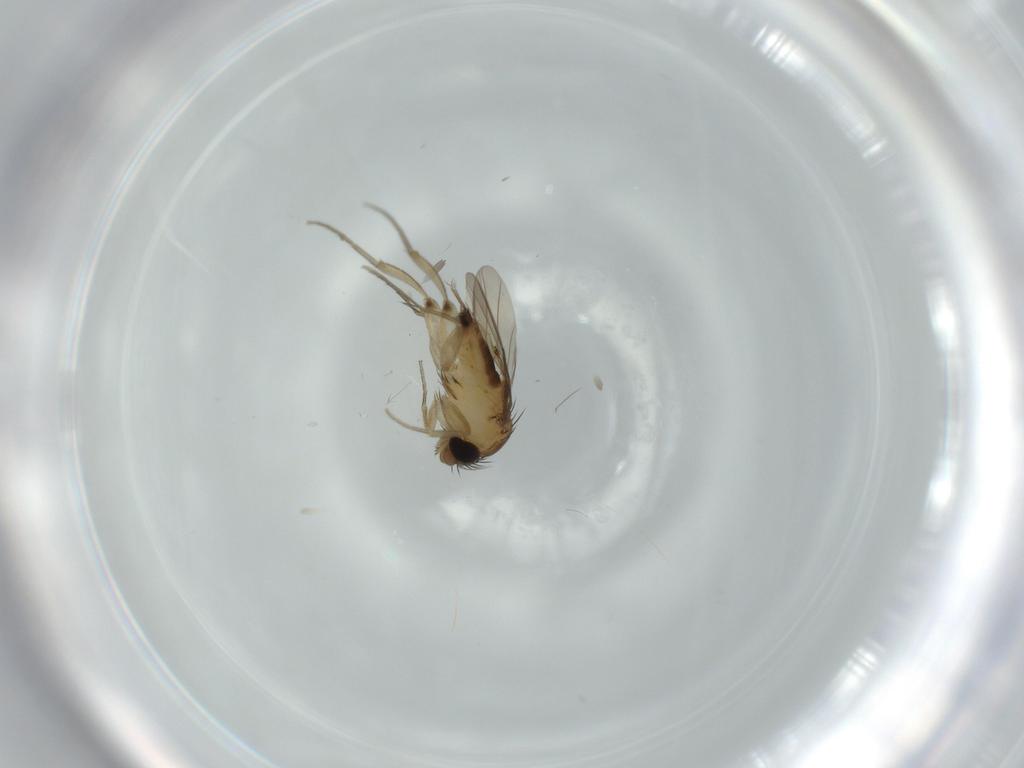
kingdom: Animalia
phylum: Arthropoda
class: Insecta
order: Diptera
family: Phoridae
